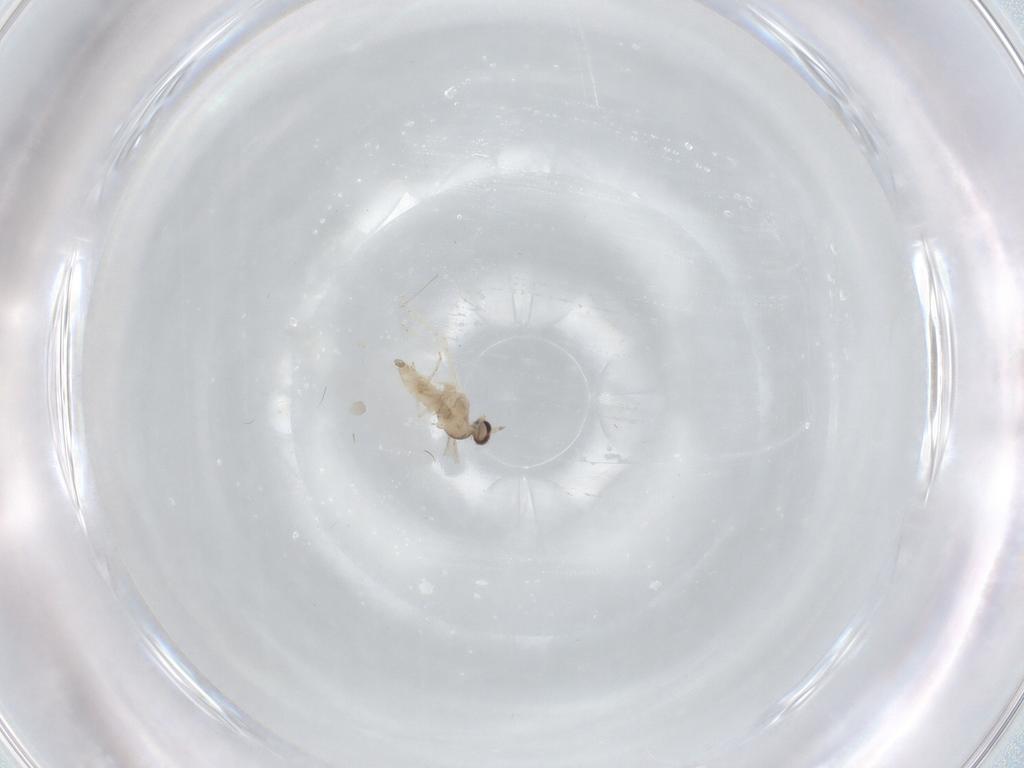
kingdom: Animalia
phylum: Arthropoda
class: Insecta
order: Diptera
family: Cecidomyiidae
